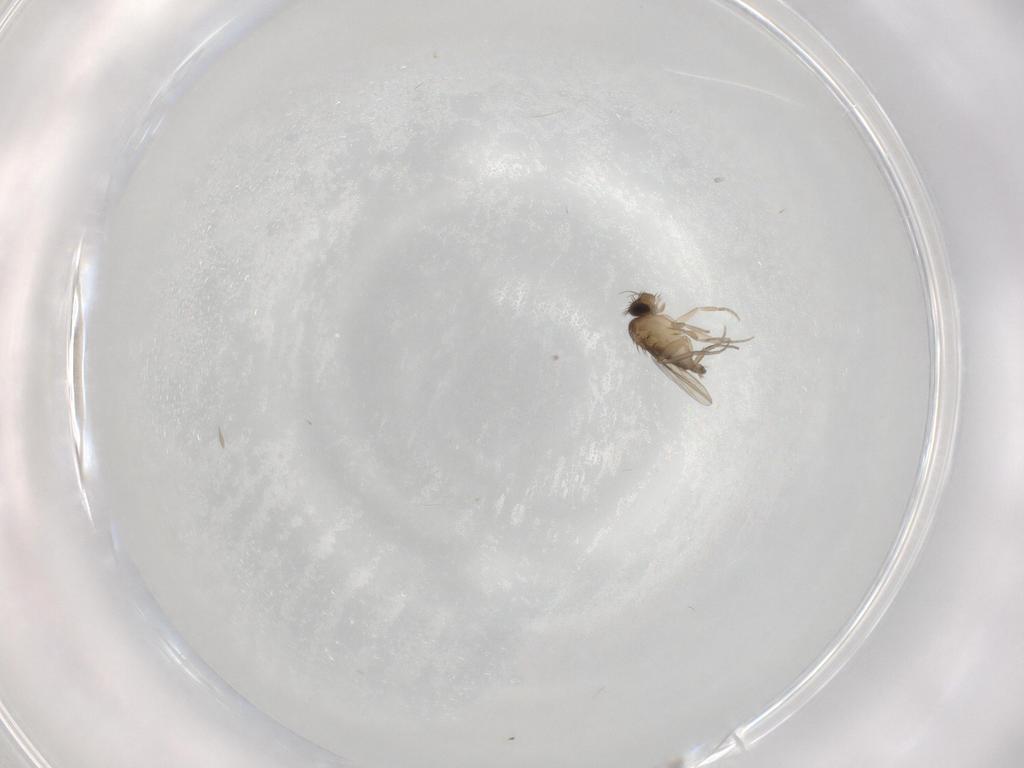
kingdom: Animalia
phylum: Arthropoda
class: Insecta
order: Diptera
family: Phoridae
